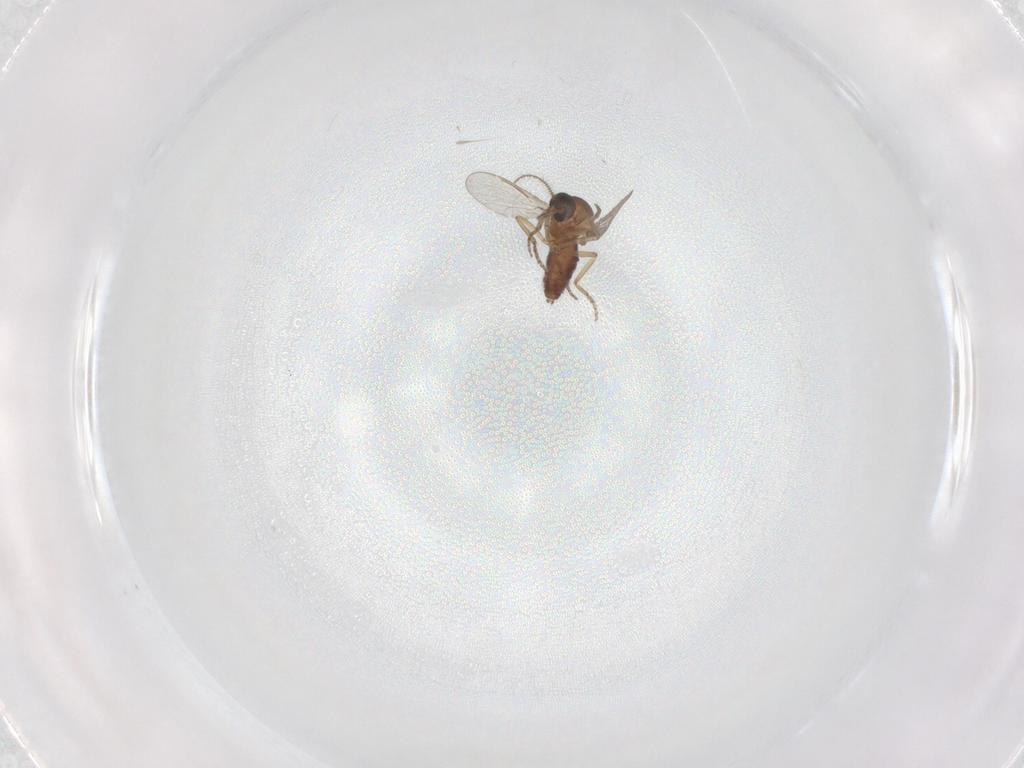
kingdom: Animalia
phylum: Arthropoda
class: Insecta
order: Diptera
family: Ceratopogonidae
